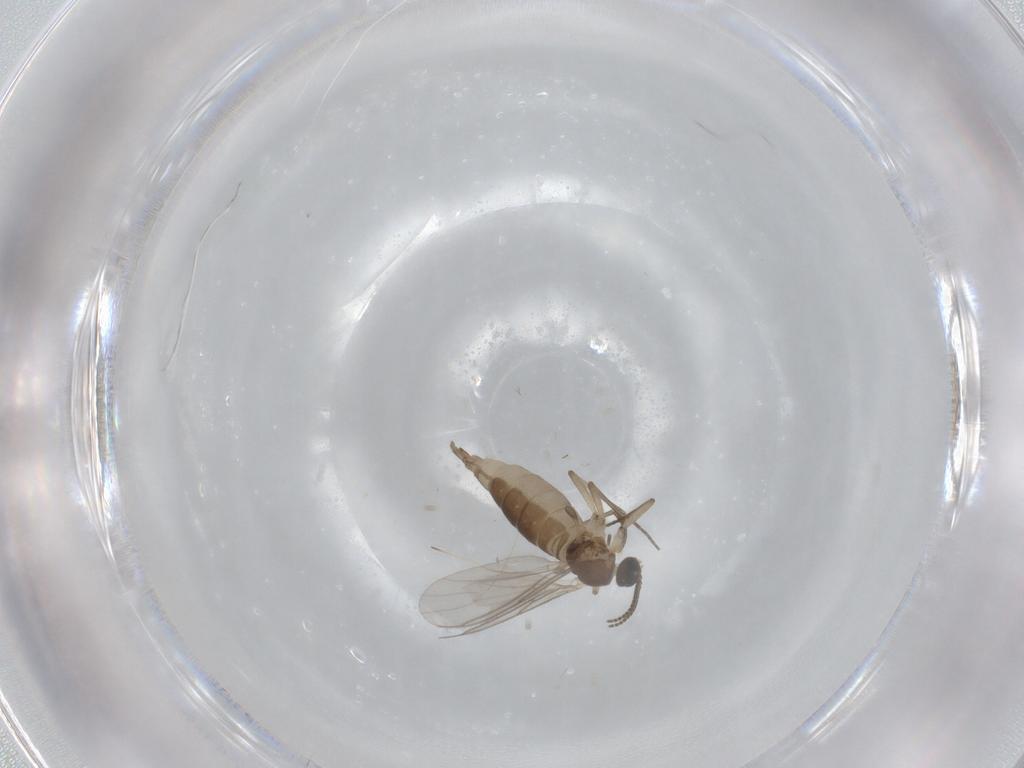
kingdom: Animalia
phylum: Arthropoda
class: Insecta
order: Diptera
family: Sciaridae
